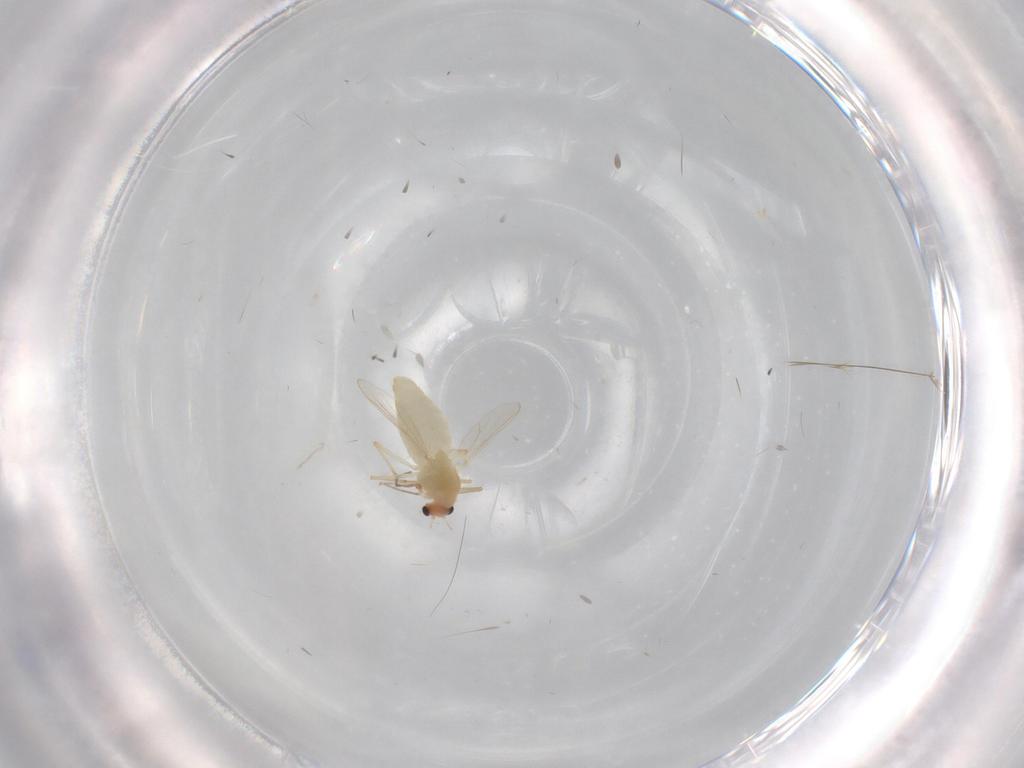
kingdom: Animalia
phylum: Arthropoda
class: Insecta
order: Diptera
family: Chironomidae
